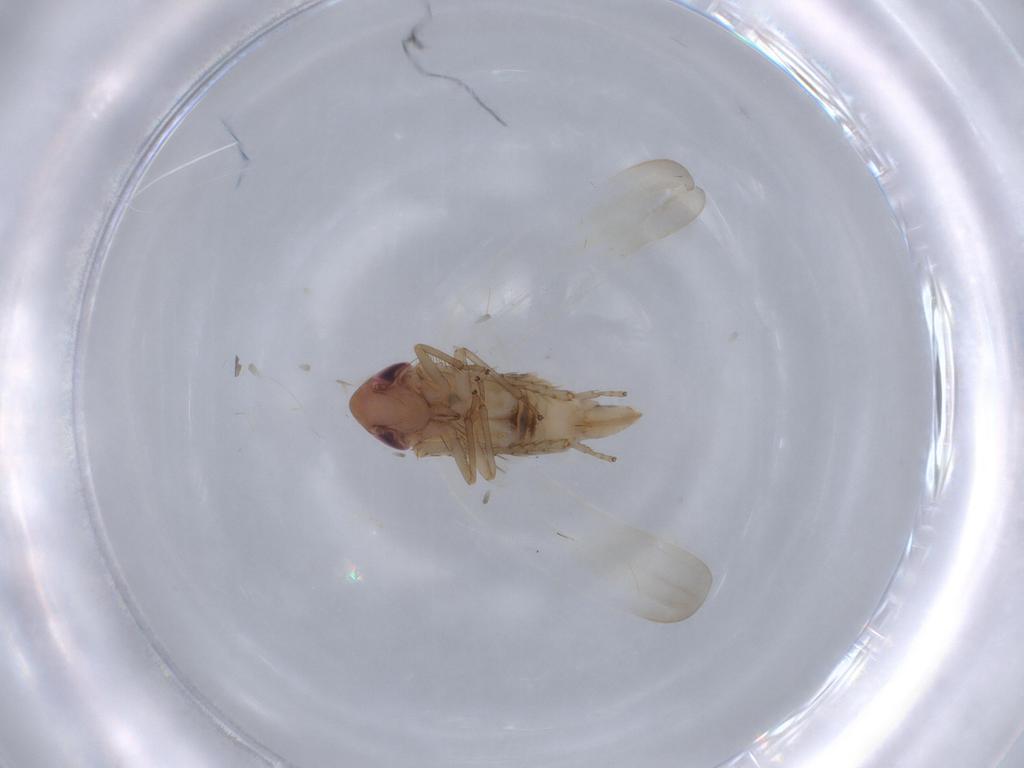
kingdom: Animalia
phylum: Arthropoda
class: Insecta
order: Hemiptera
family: Cicadellidae
